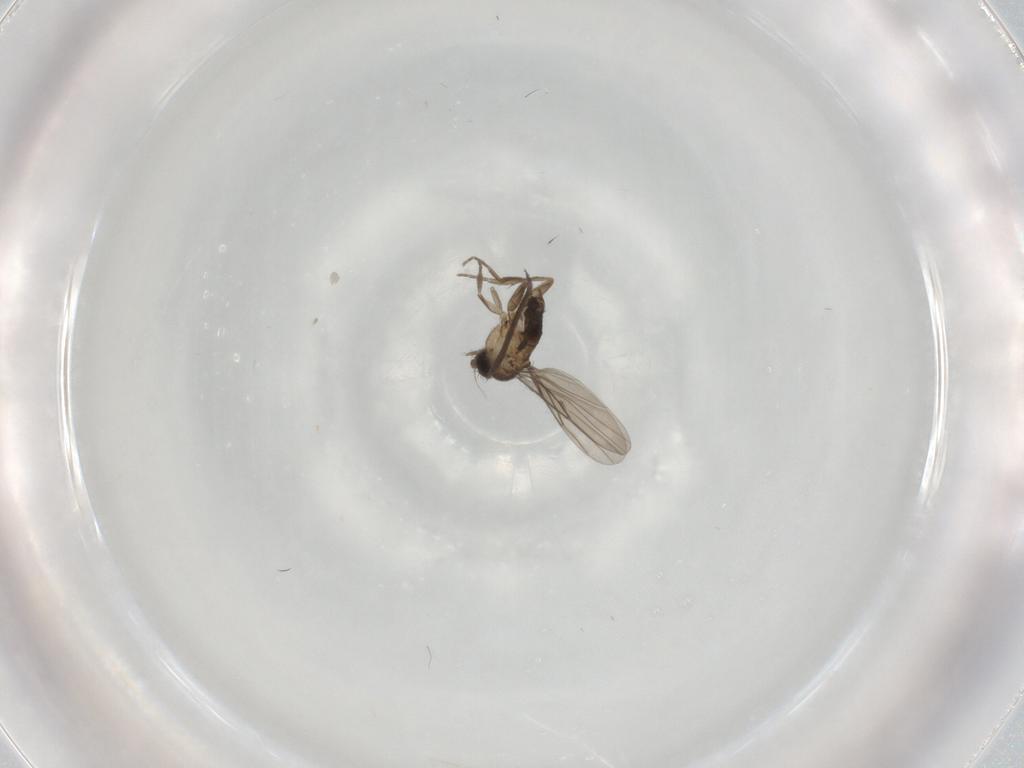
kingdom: Animalia
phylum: Arthropoda
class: Insecta
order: Diptera
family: Phoridae
